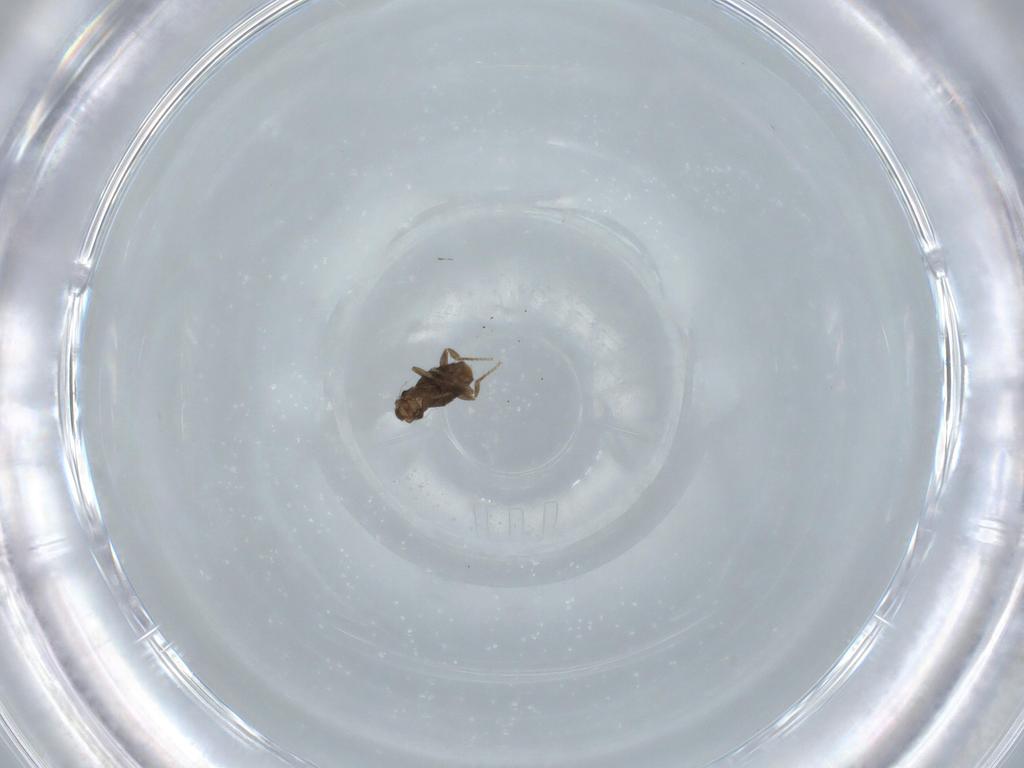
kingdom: Animalia
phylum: Arthropoda
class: Insecta
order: Diptera
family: Phoridae
